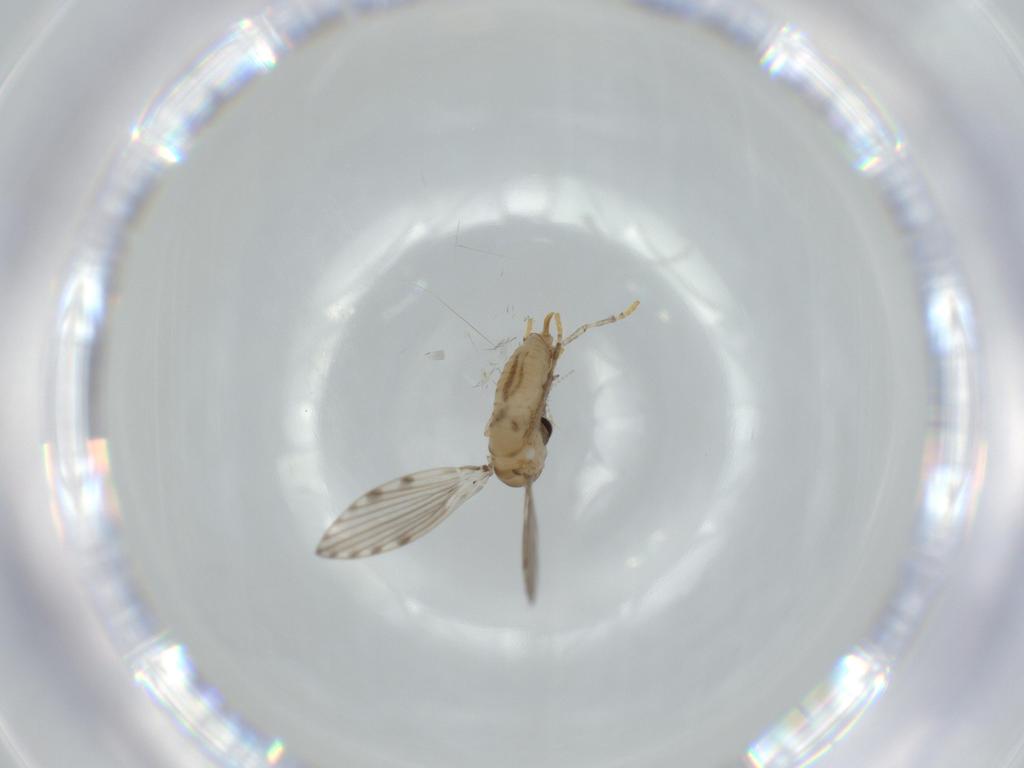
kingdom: Animalia
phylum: Arthropoda
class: Insecta
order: Diptera
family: Psychodidae
